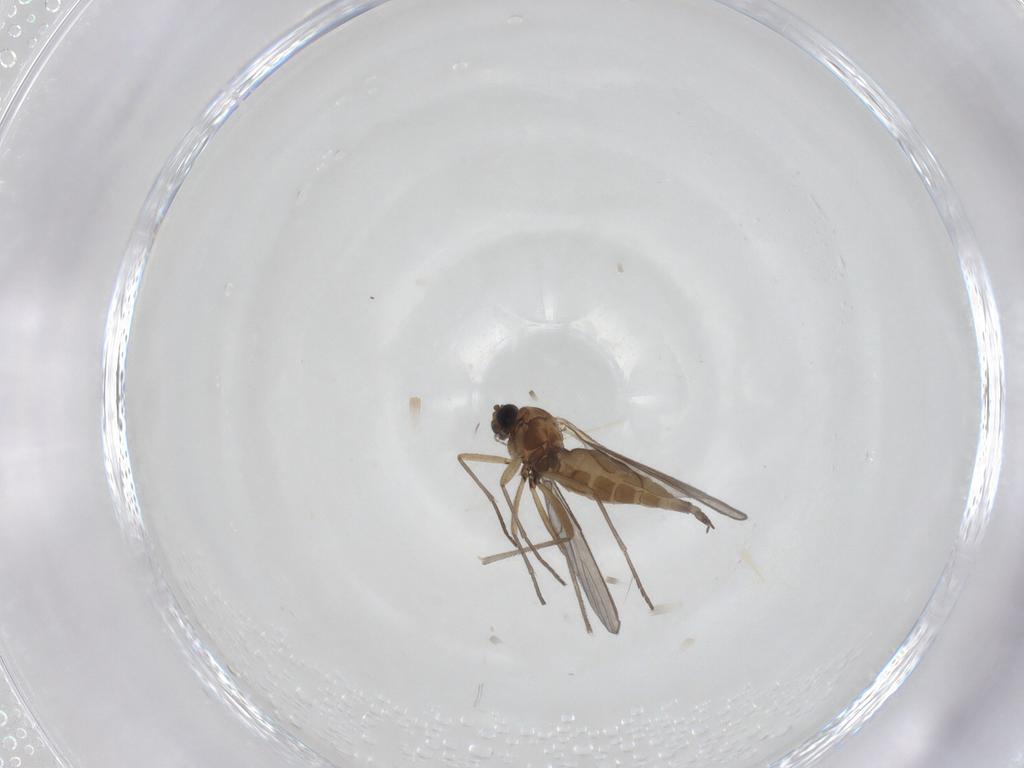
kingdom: Animalia
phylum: Arthropoda
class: Insecta
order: Diptera
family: Sciaridae
